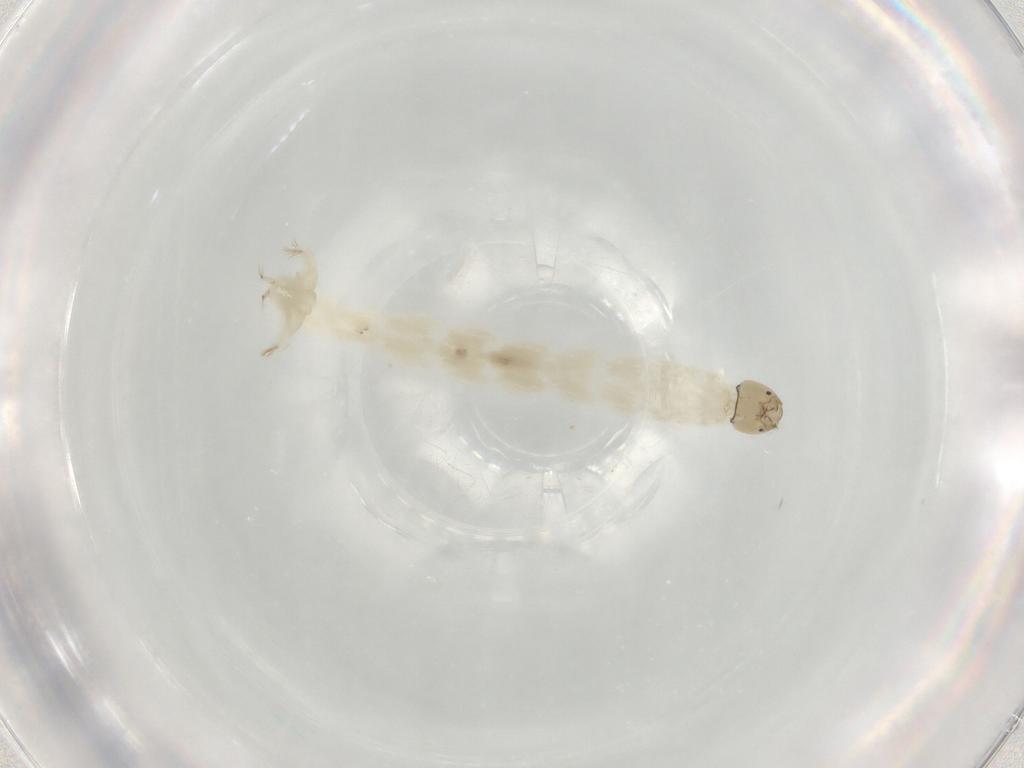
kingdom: Animalia
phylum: Arthropoda
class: Insecta
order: Diptera
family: Chironomidae
